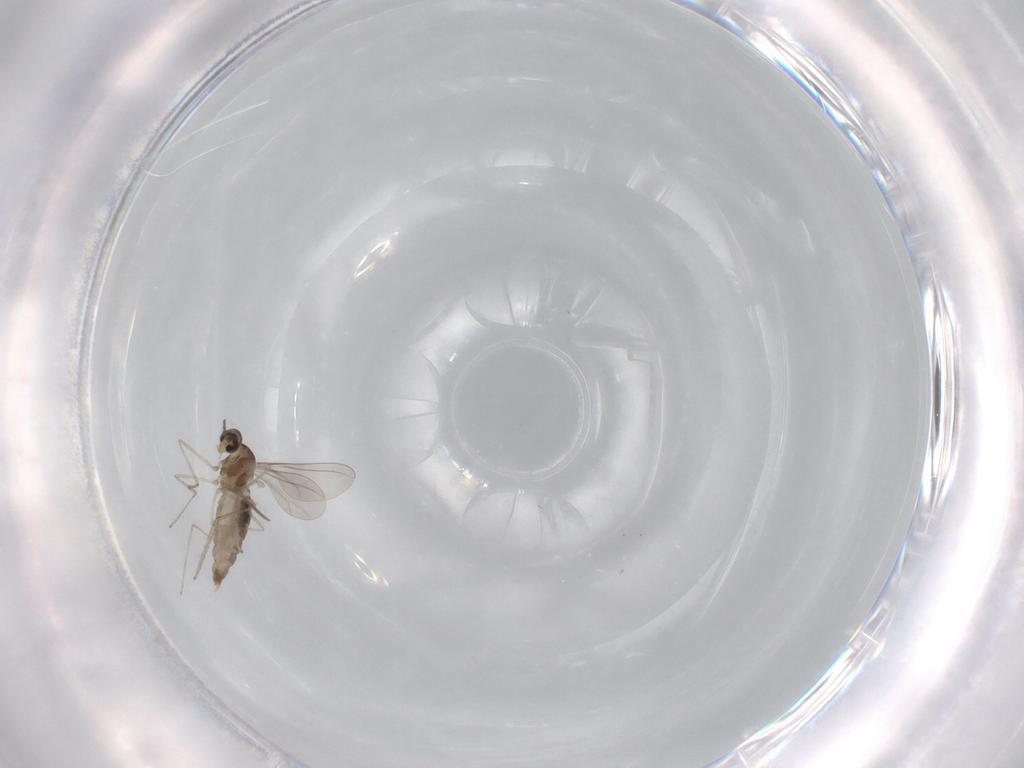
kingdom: Animalia
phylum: Arthropoda
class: Insecta
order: Diptera
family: Cecidomyiidae
